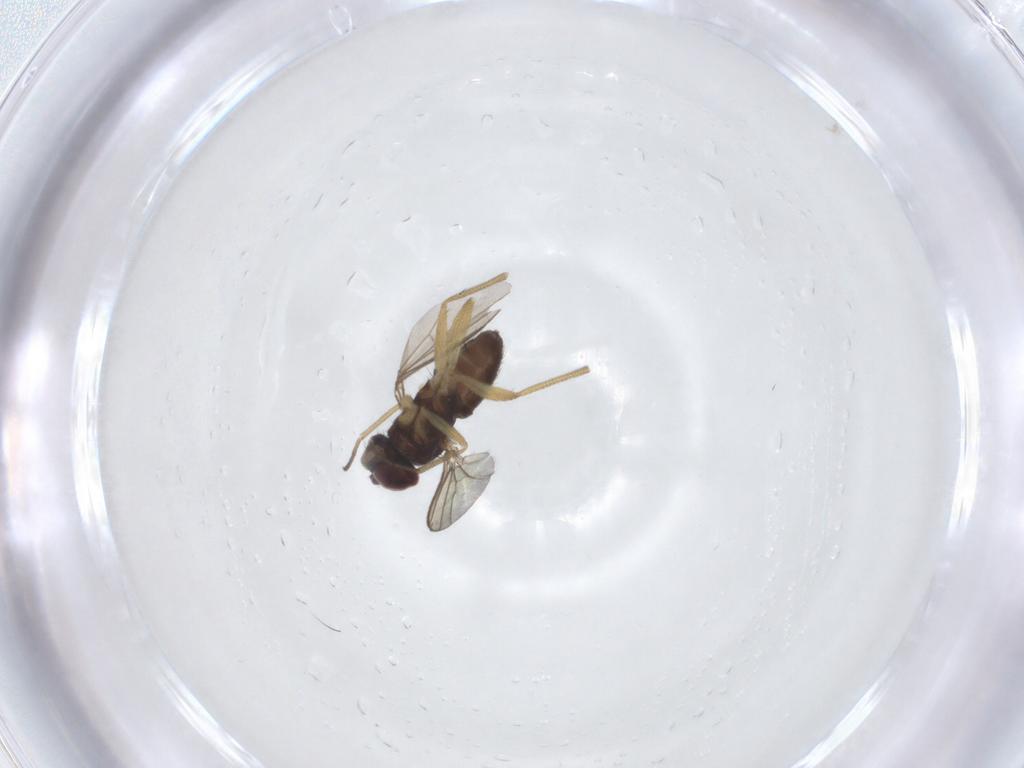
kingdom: Animalia
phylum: Arthropoda
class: Insecta
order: Diptera
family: Dolichopodidae
